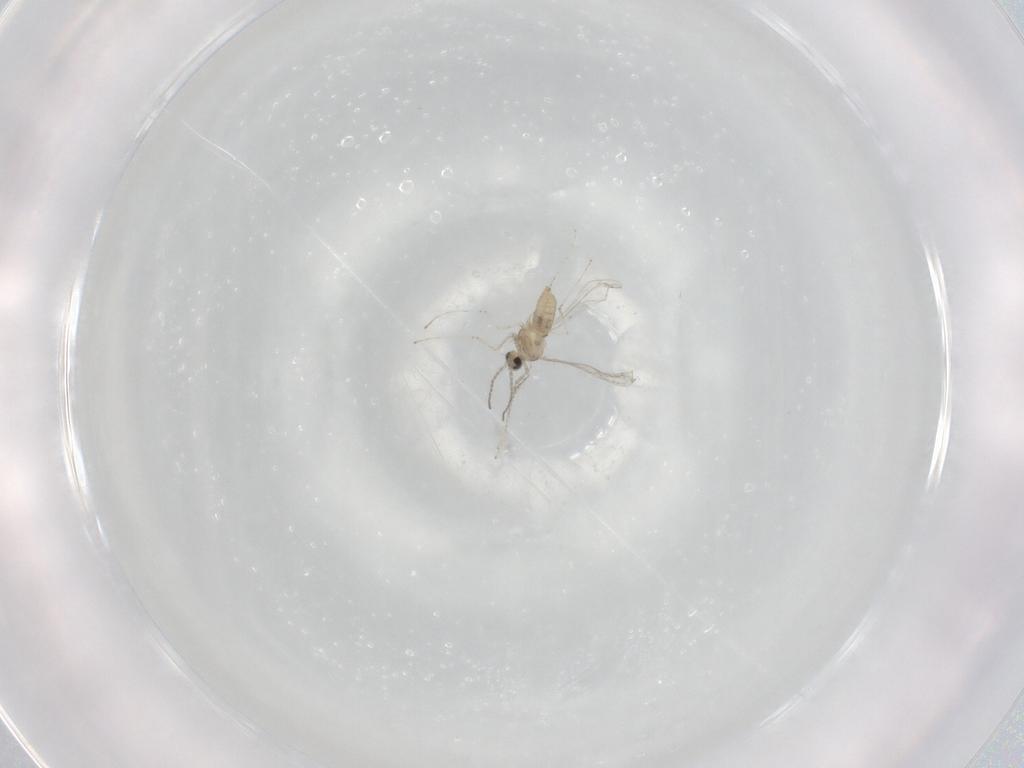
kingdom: Animalia
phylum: Arthropoda
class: Insecta
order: Diptera
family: Cecidomyiidae
